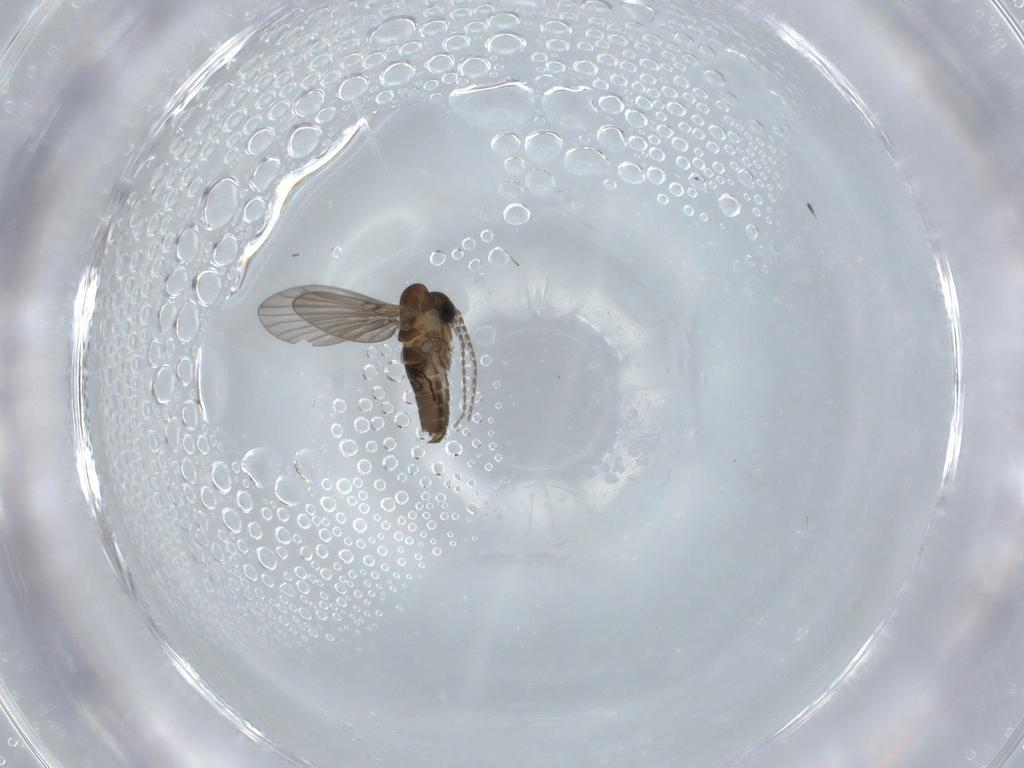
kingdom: Animalia
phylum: Arthropoda
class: Insecta
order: Diptera
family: Psychodidae
